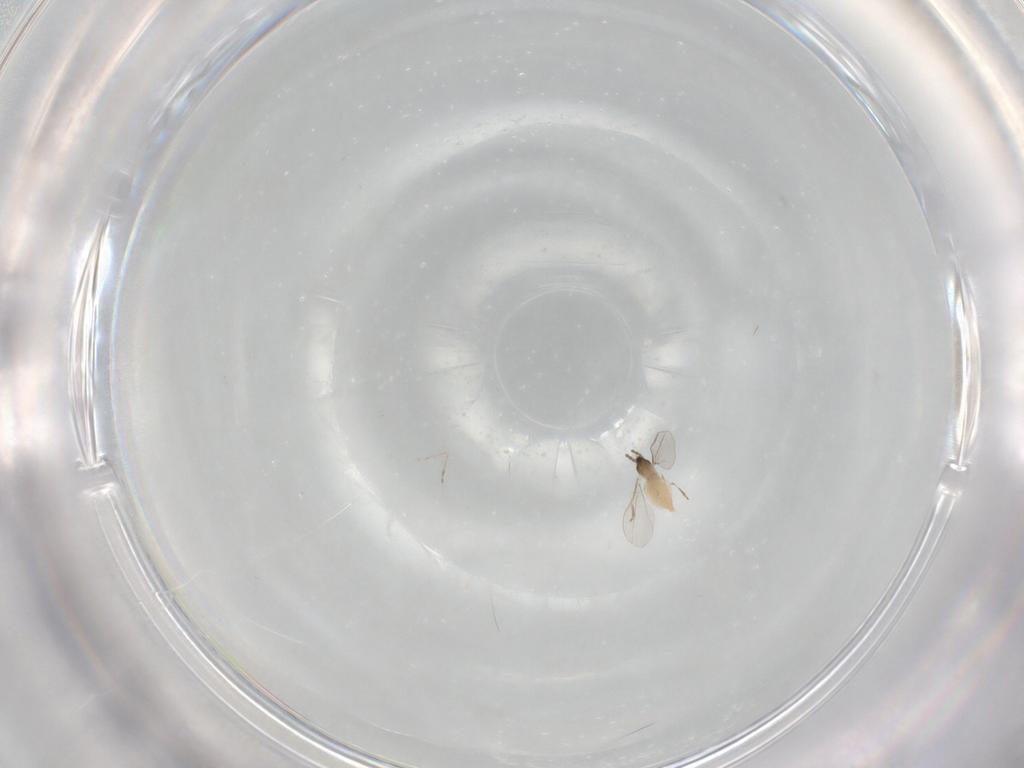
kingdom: Animalia
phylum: Arthropoda
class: Insecta
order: Diptera
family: Cecidomyiidae
